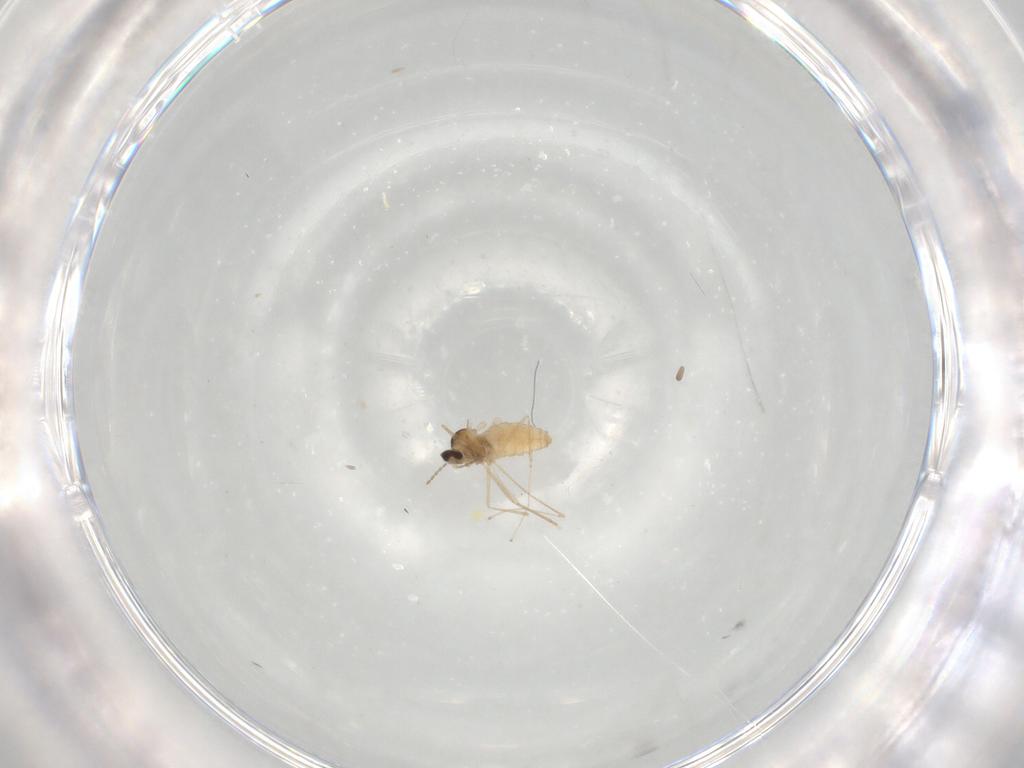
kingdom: Animalia
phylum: Arthropoda
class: Insecta
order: Diptera
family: Cecidomyiidae
